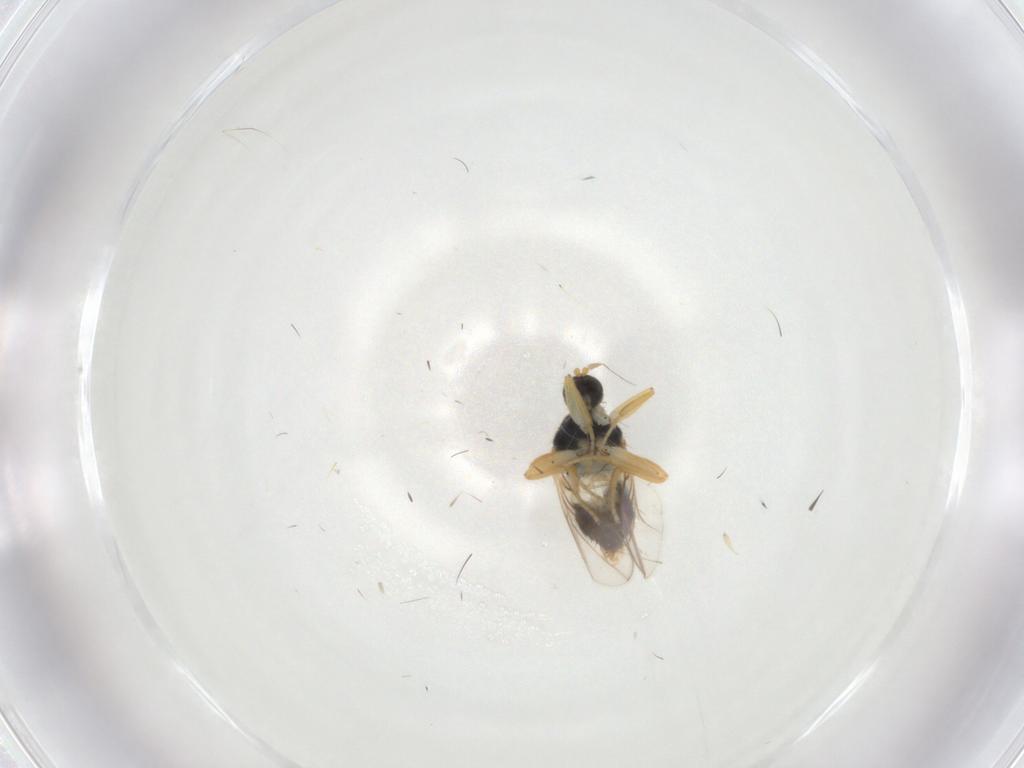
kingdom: Animalia
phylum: Arthropoda
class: Insecta
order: Diptera
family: Hybotidae
